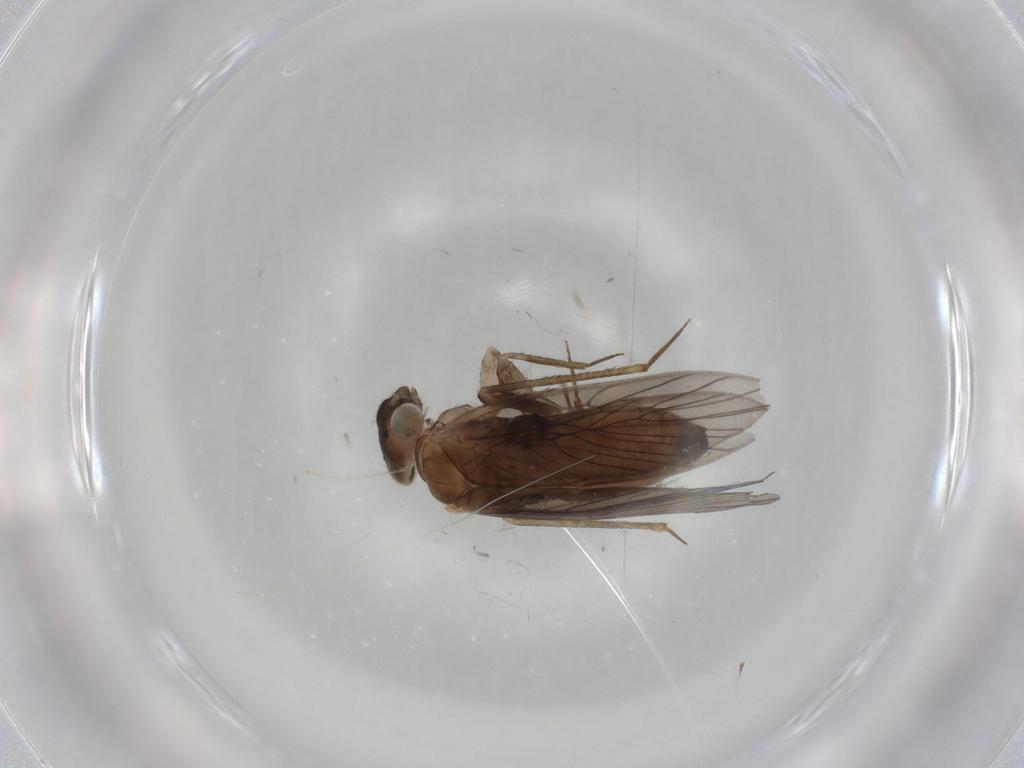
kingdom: Animalia
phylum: Arthropoda
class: Insecta
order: Psocodea
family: Lepidopsocidae
